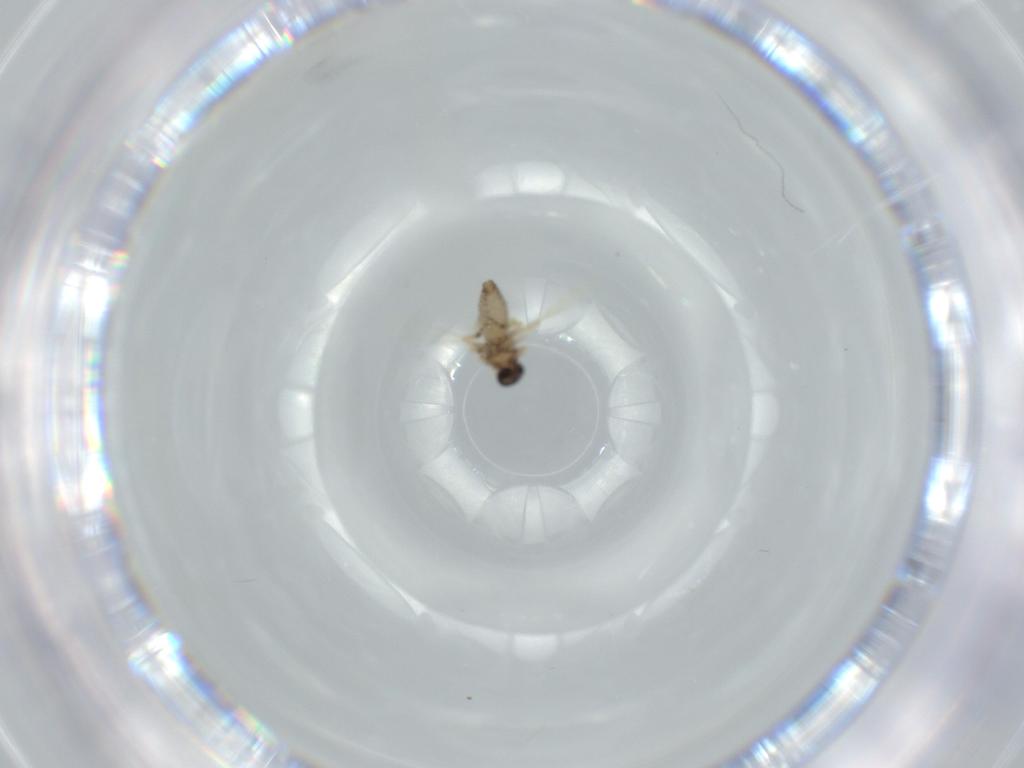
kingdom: Animalia
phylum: Arthropoda
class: Insecta
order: Diptera
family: Ceratopogonidae
